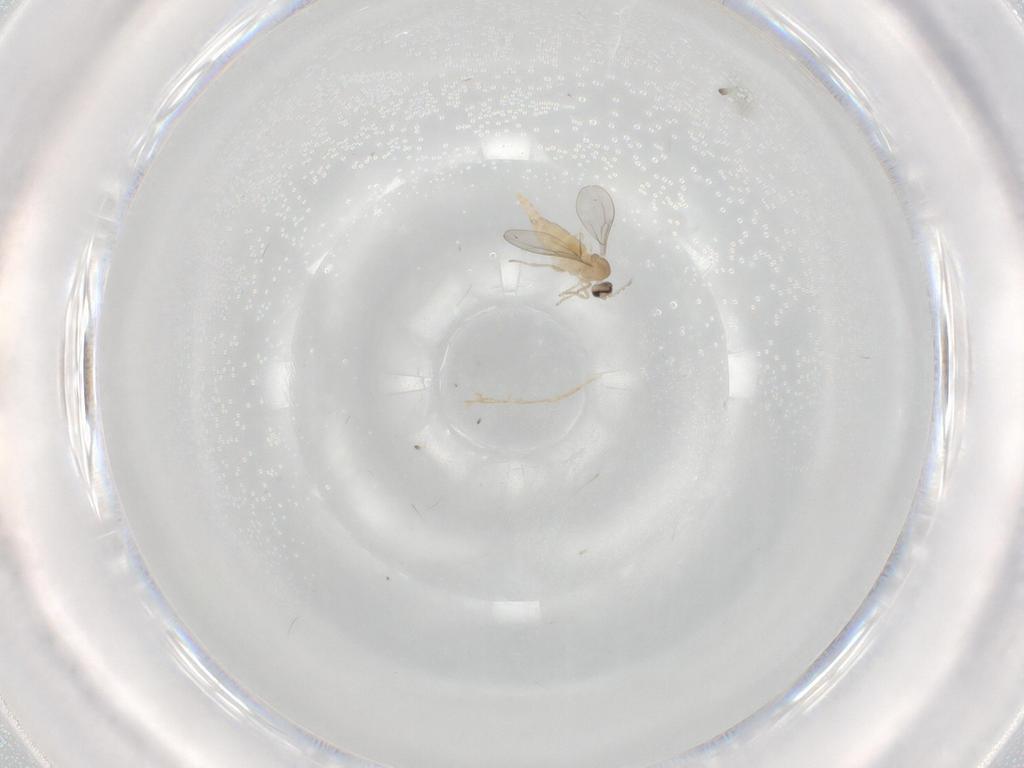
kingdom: Animalia
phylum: Arthropoda
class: Insecta
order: Diptera
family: Cecidomyiidae
